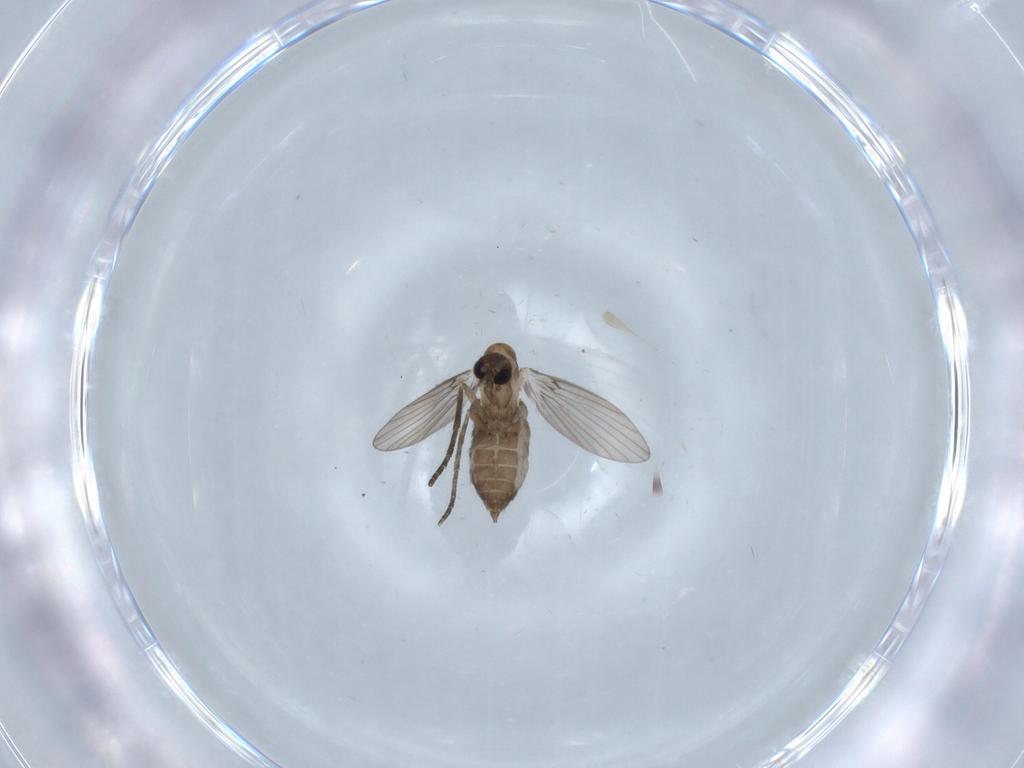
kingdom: Animalia
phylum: Arthropoda
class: Insecta
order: Diptera
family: Psychodidae
